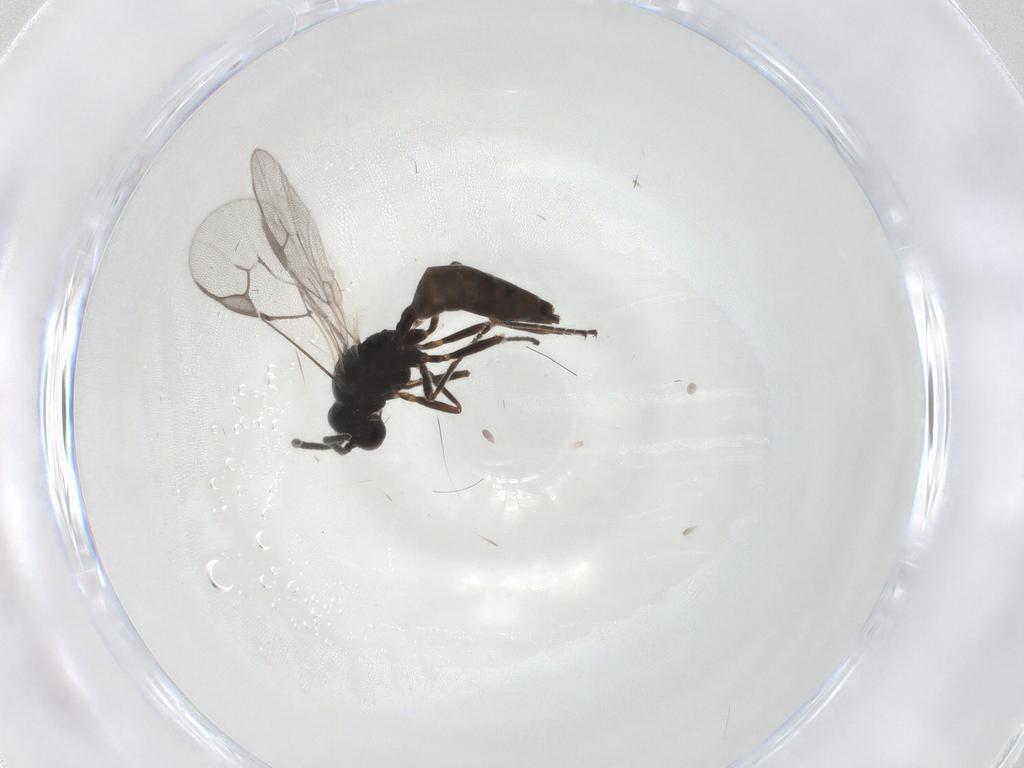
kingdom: Animalia
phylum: Arthropoda
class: Insecta
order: Hymenoptera
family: Braconidae
